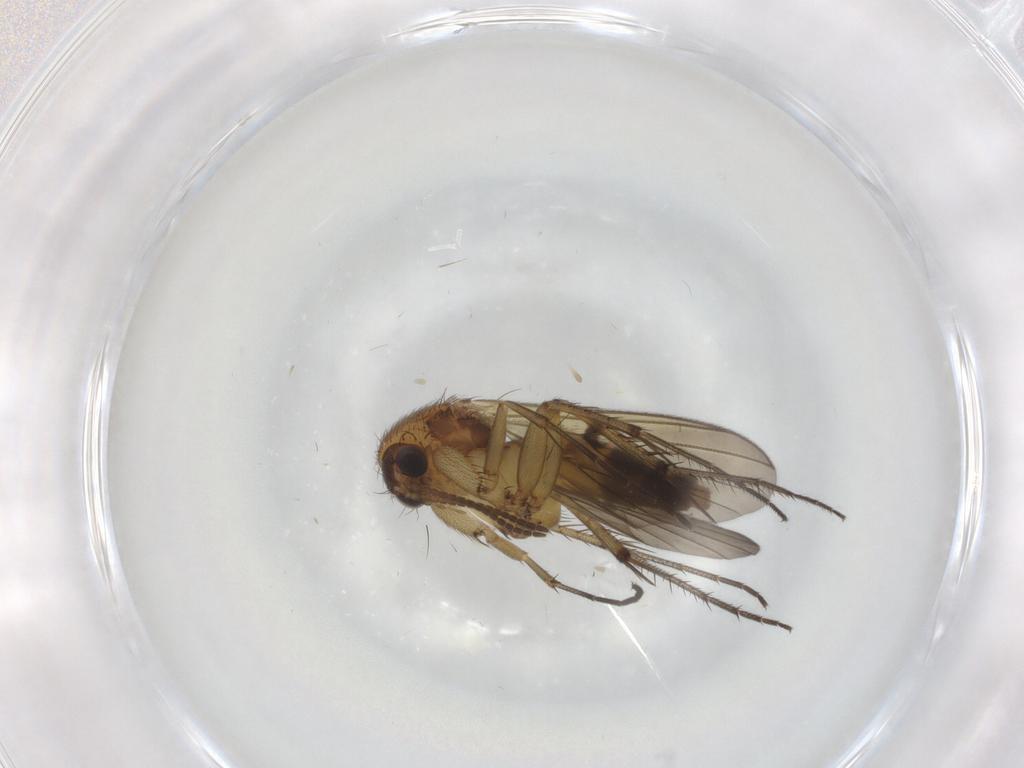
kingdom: Animalia
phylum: Arthropoda
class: Insecta
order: Diptera
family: Mycetophilidae
